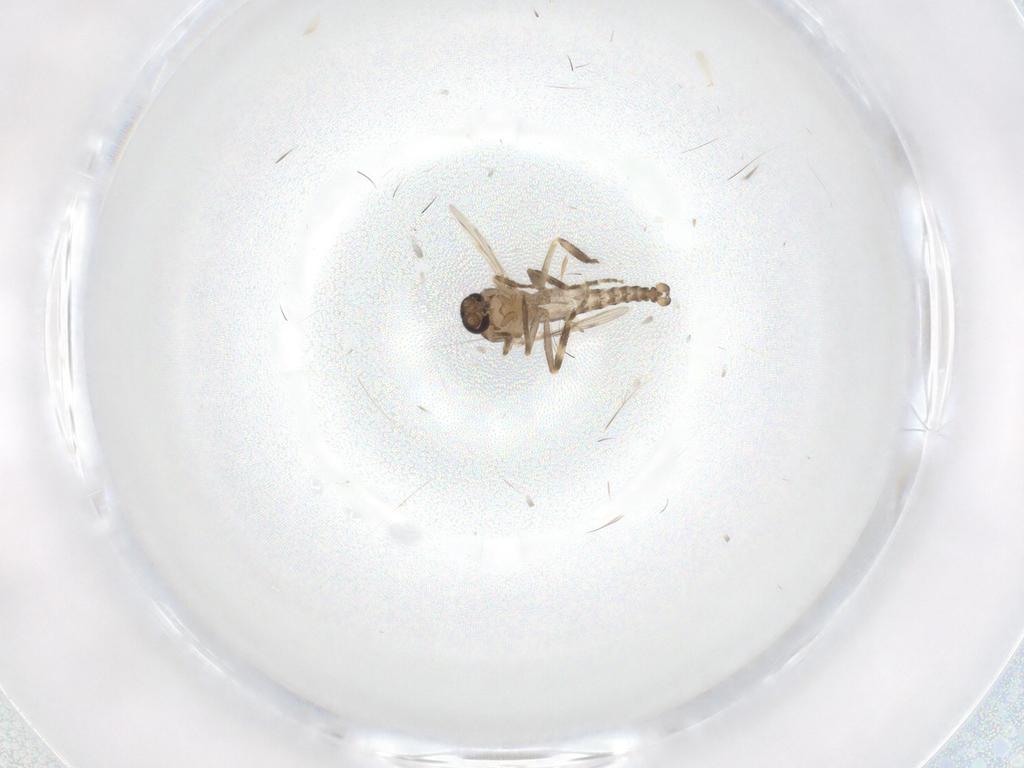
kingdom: Animalia
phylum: Arthropoda
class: Insecta
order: Diptera
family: Ceratopogonidae
